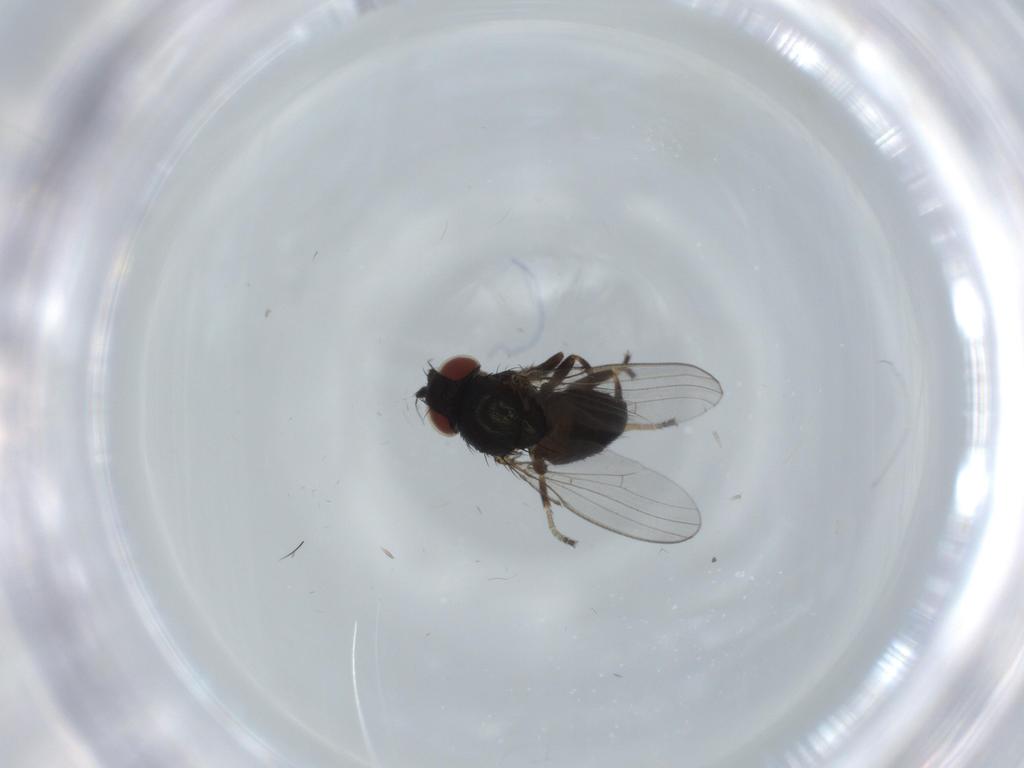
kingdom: Animalia
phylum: Arthropoda
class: Insecta
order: Diptera
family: Milichiidae
